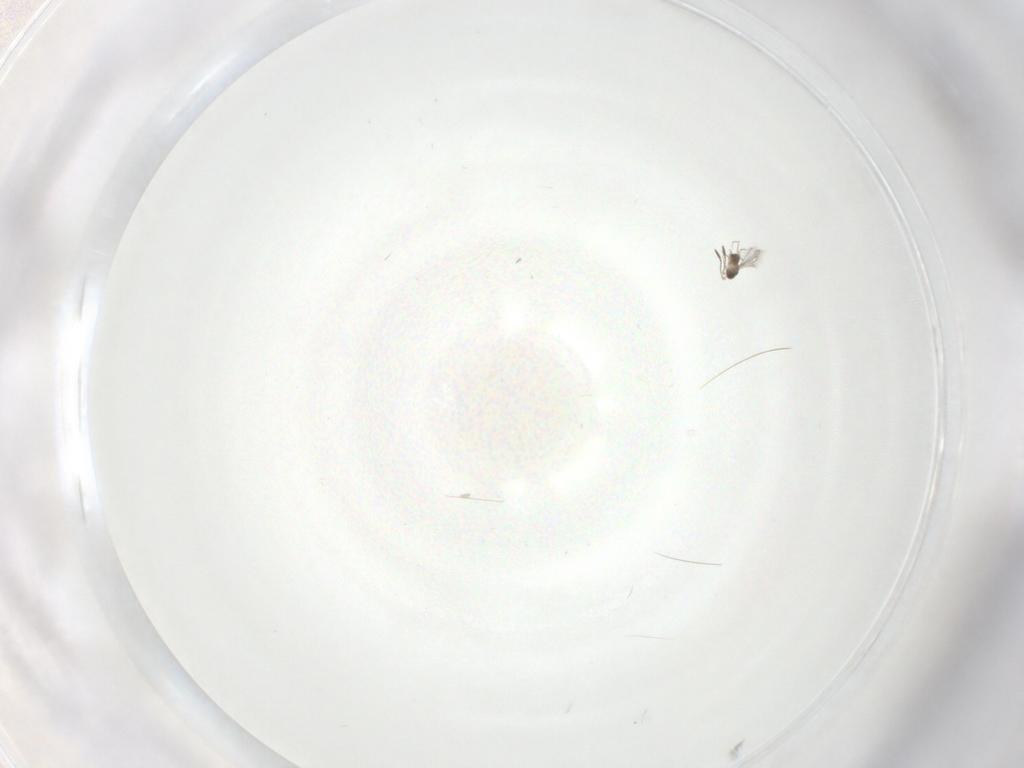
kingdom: Animalia
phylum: Arthropoda
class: Insecta
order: Hymenoptera
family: Mymaridae
